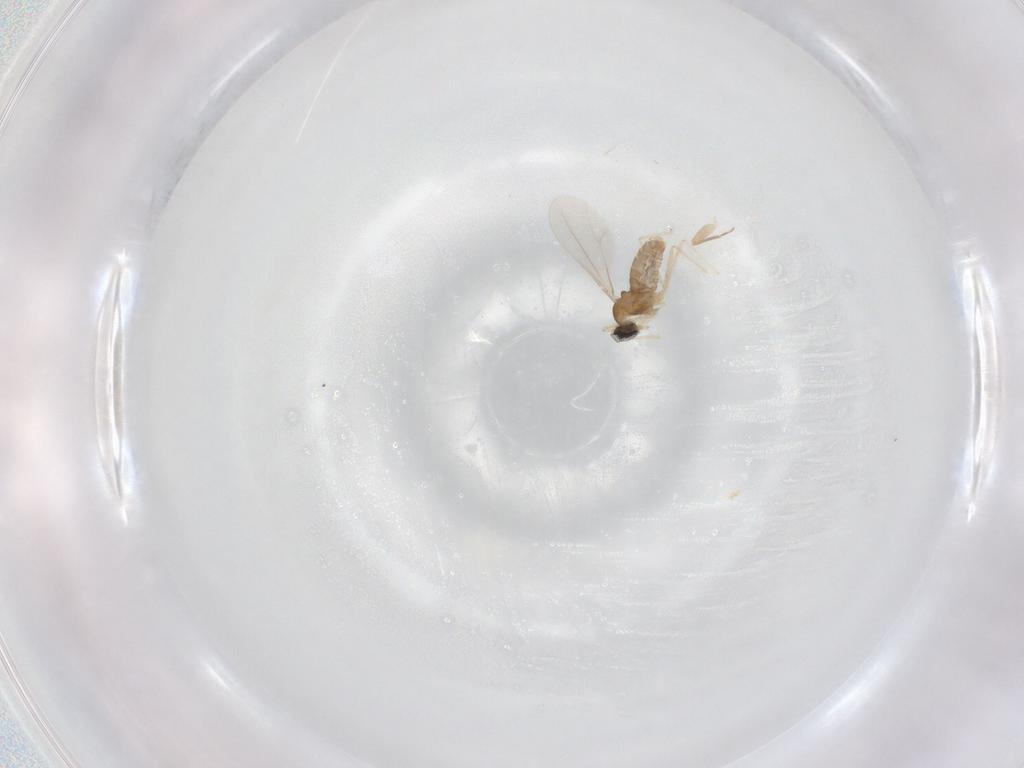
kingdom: Animalia
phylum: Arthropoda
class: Insecta
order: Diptera
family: Cecidomyiidae
